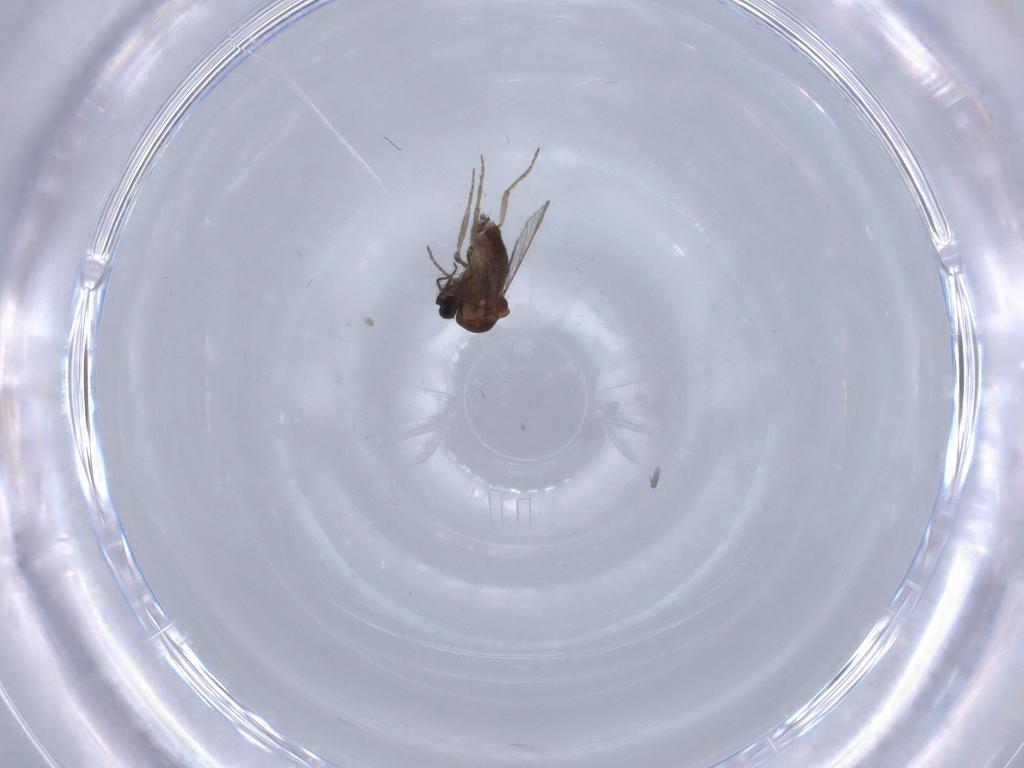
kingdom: Animalia
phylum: Arthropoda
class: Insecta
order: Diptera
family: Chironomidae
